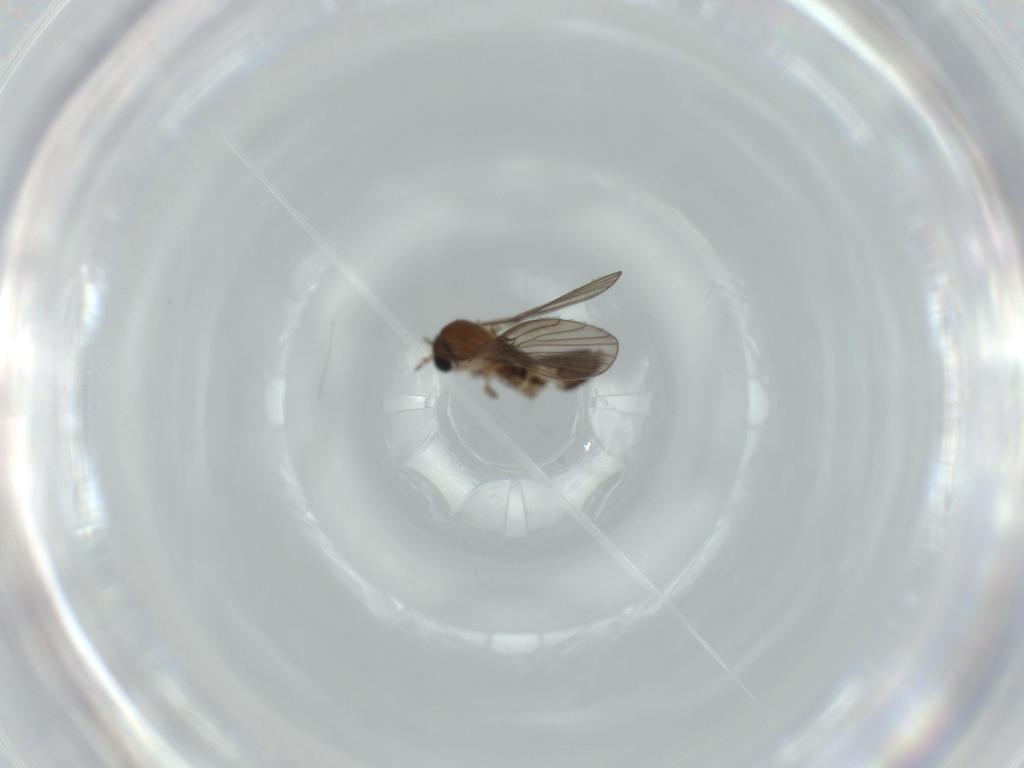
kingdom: Animalia
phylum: Arthropoda
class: Insecta
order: Diptera
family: Psychodidae
